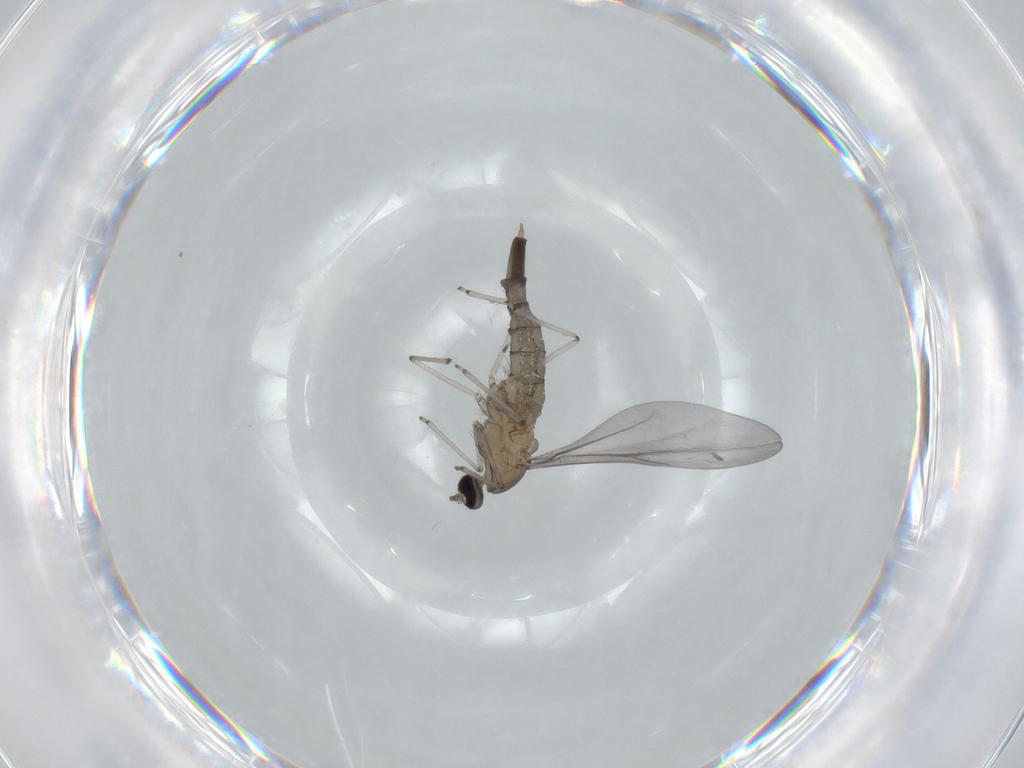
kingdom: Animalia
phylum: Arthropoda
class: Insecta
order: Diptera
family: Cecidomyiidae
